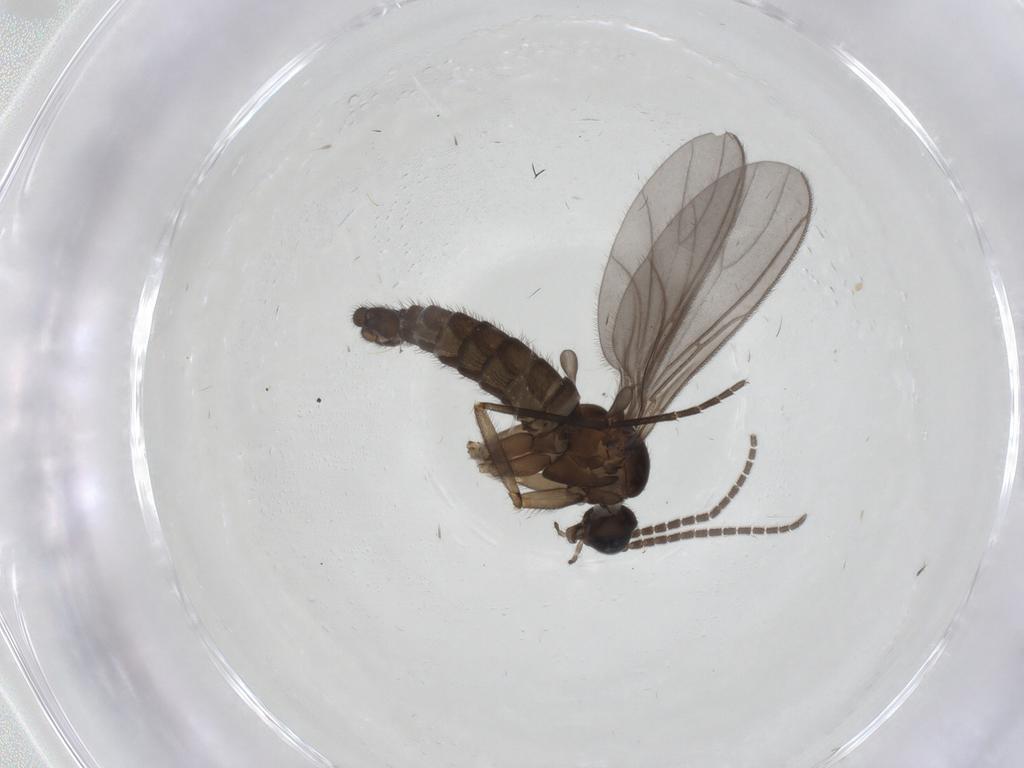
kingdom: Animalia
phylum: Arthropoda
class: Insecta
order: Diptera
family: Sciaridae
